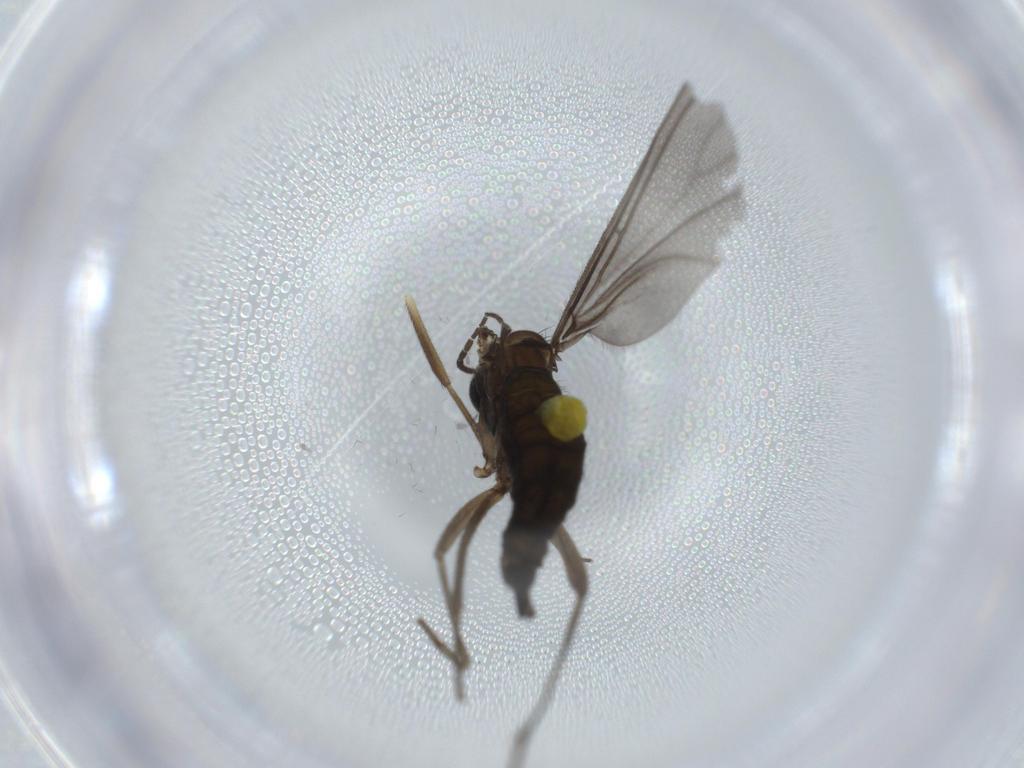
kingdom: Animalia
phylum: Arthropoda
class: Insecta
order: Diptera
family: Sciaridae
